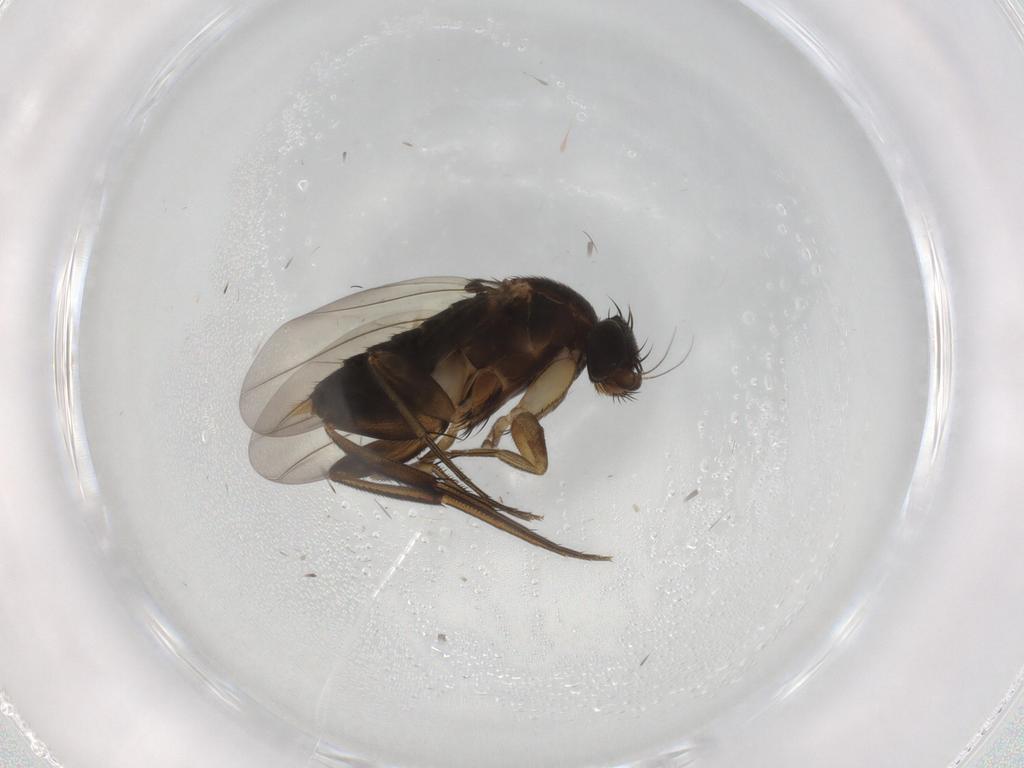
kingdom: Animalia
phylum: Arthropoda
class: Insecta
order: Diptera
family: Phoridae
